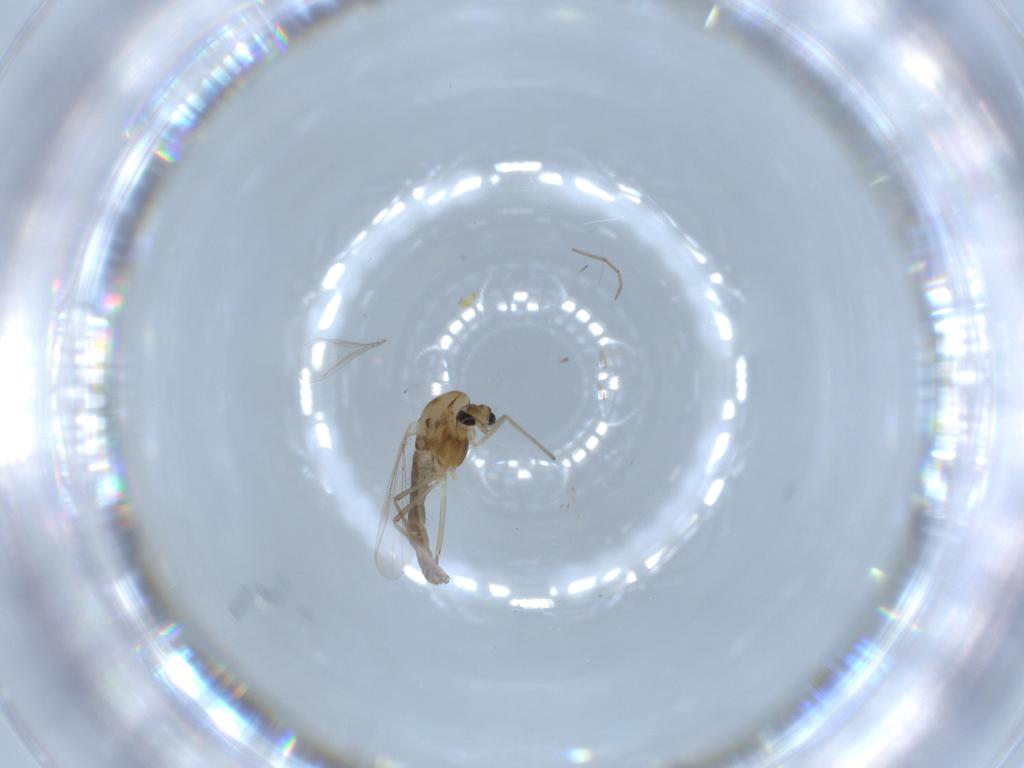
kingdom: Animalia
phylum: Arthropoda
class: Insecta
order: Diptera
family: Chironomidae
